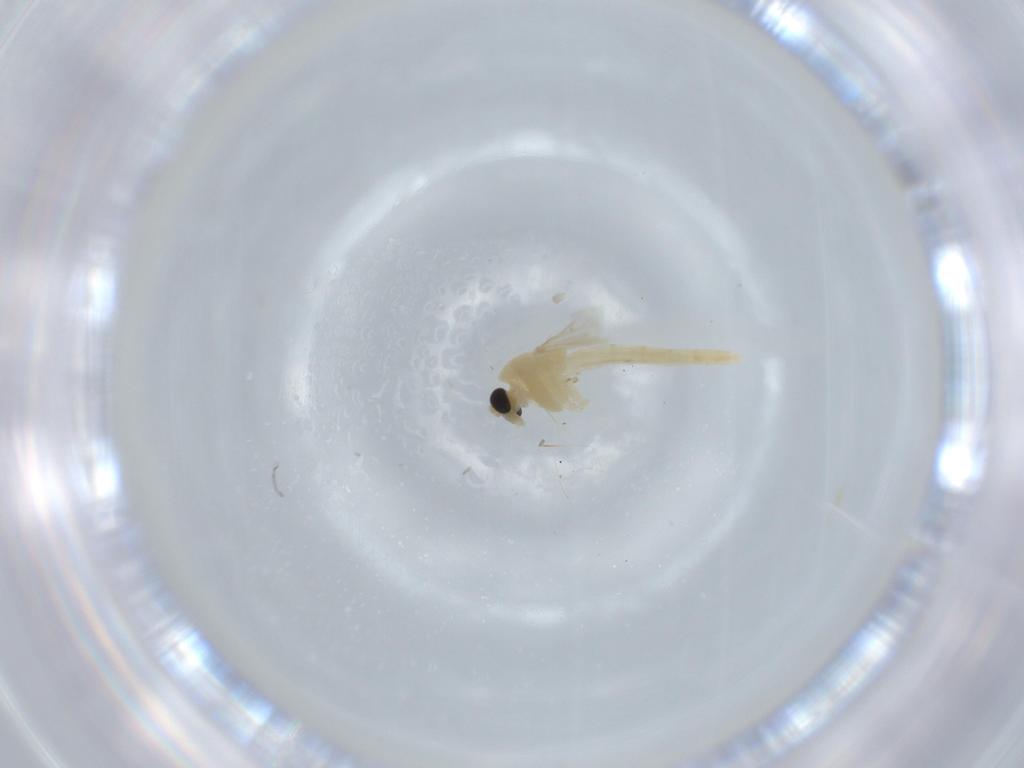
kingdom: Animalia
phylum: Arthropoda
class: Insecta
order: Diptera
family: Chironomidae
